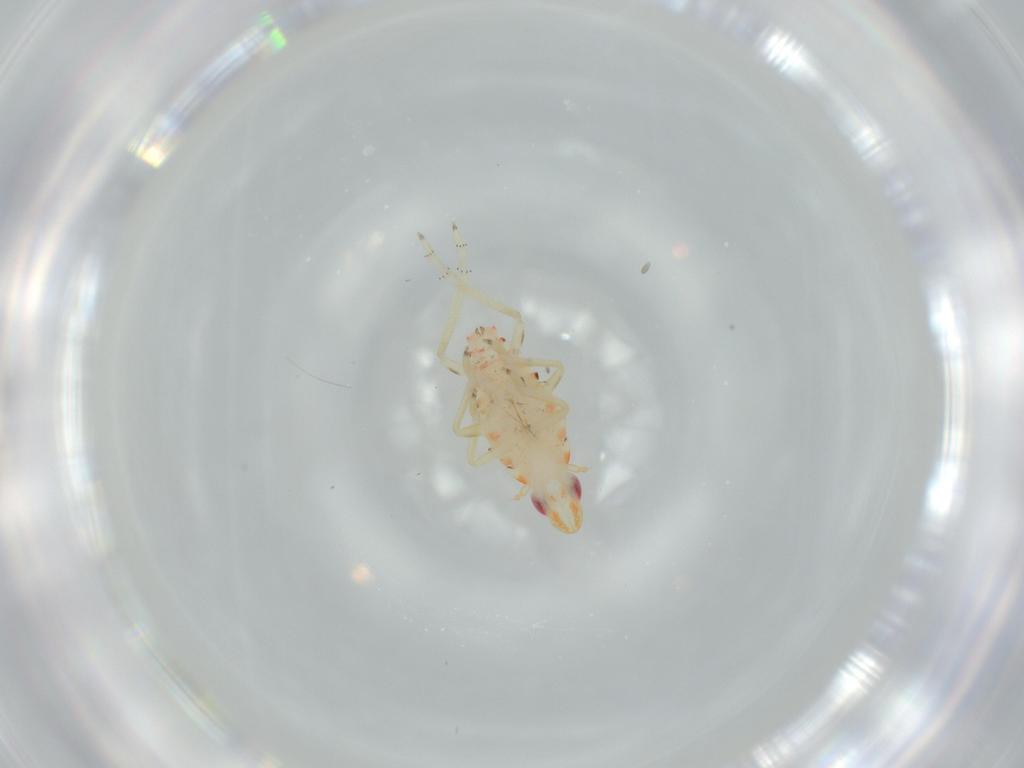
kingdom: Animalia
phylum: Arthropoda
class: Insecta
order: Hemiptera
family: Tropiduchidae
